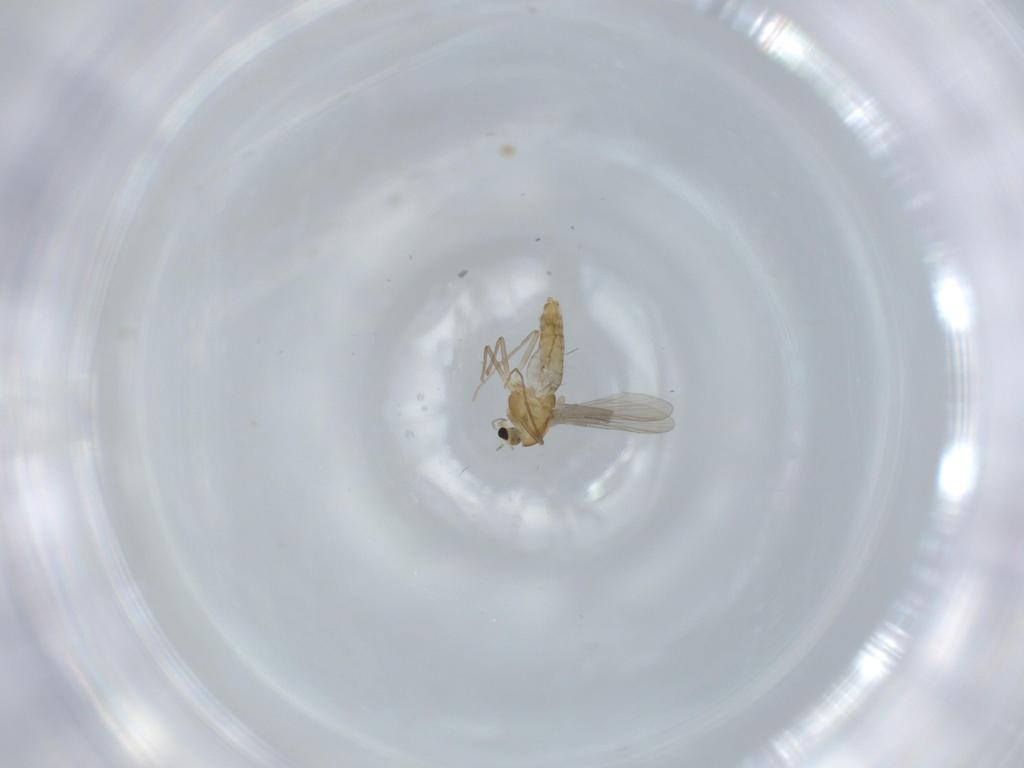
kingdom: Animalia
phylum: Arthropoda
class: Insecta
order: Diptera
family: Chironomidae
